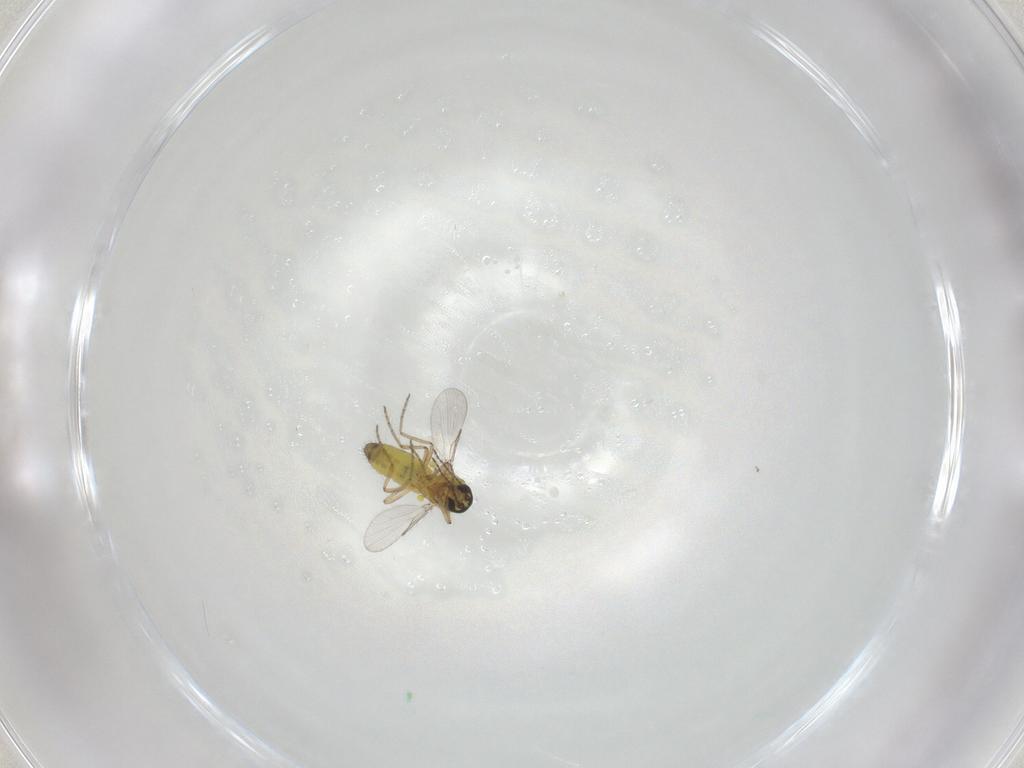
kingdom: Animalia
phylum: Arthropoda
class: Insecta
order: Diptera
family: Ceratopogonidae
